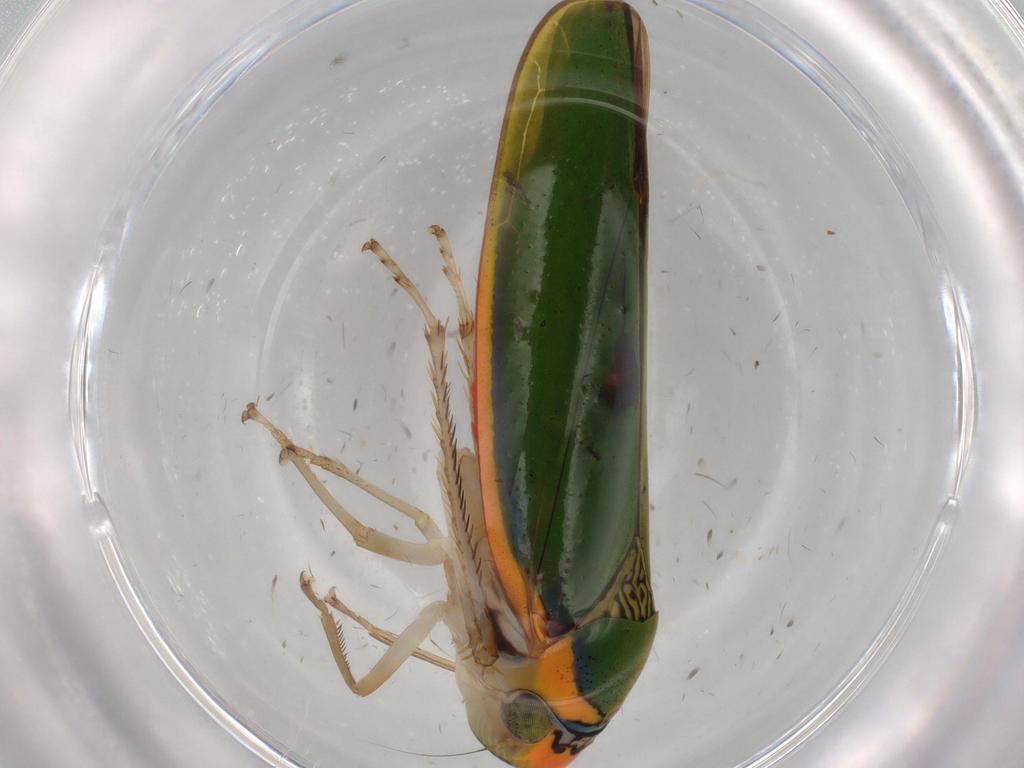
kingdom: Animalia
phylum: Arthropoda
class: Insecta
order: Hemiptera
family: Cicadellidae
